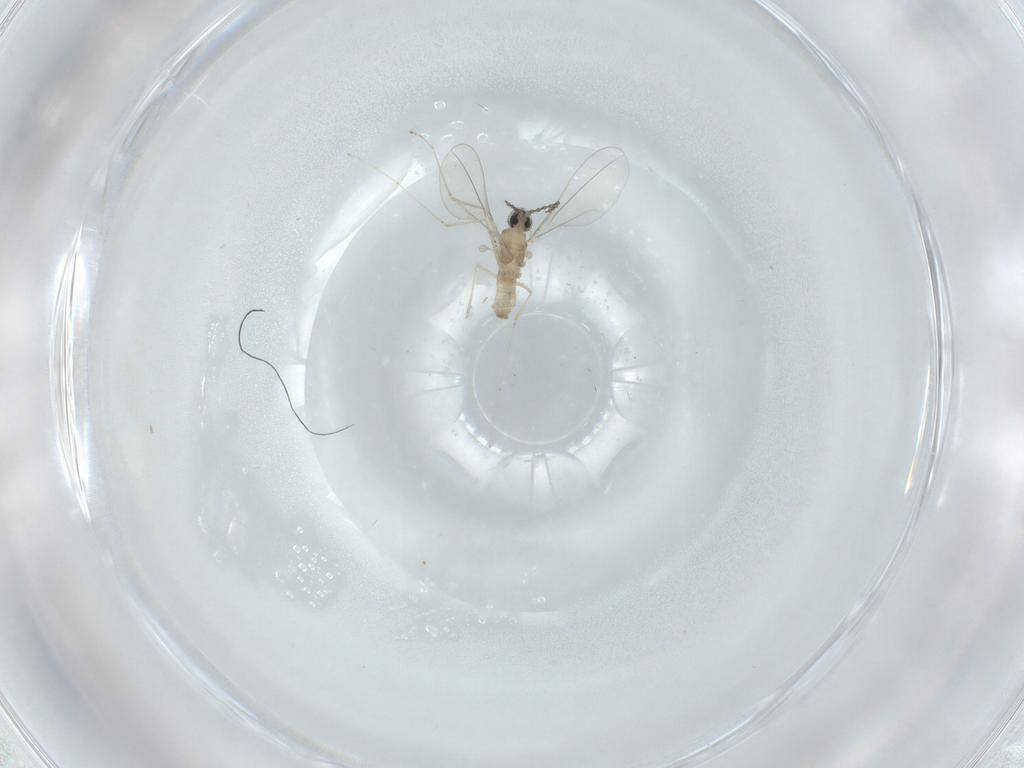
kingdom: Animalia
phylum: Arthropoda
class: Insecta
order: Diptera
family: Cecidomyiidae
